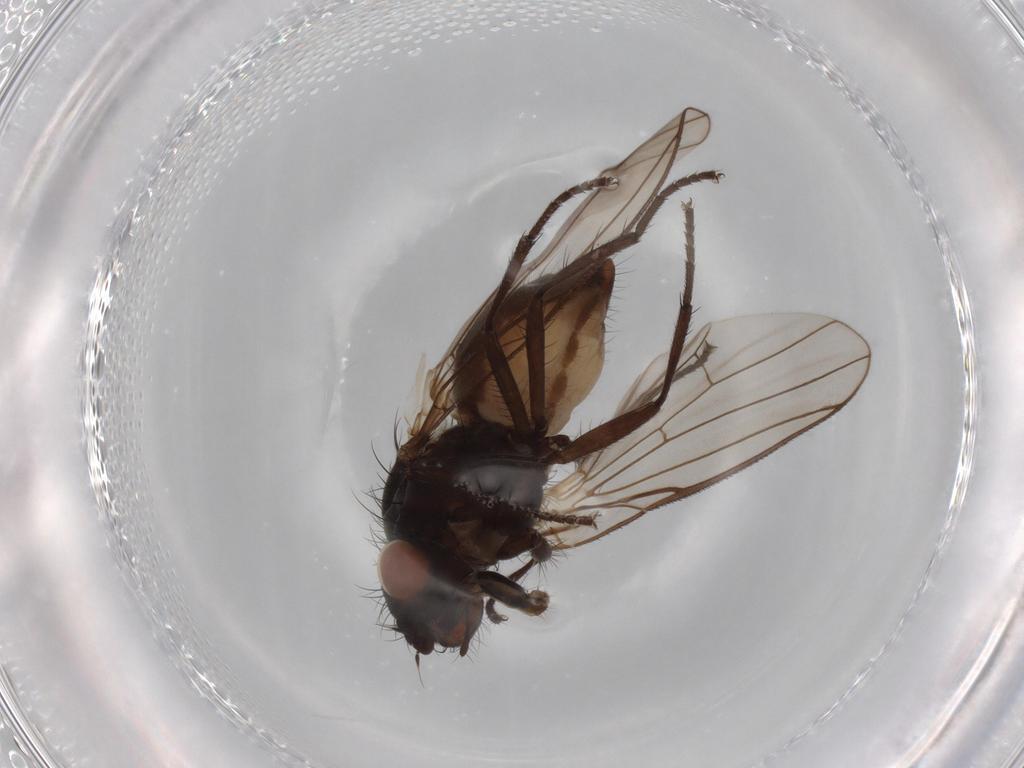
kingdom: Animalia
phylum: Arthropoda
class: Insecta
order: Diptera
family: Anthomyiidae
